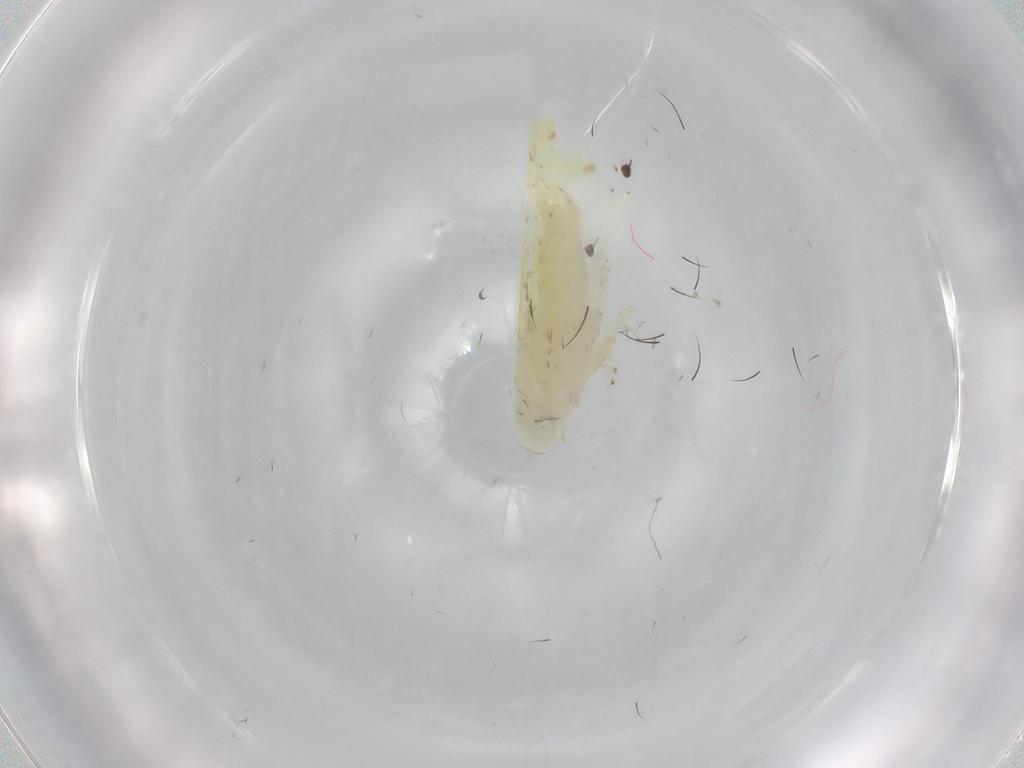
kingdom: Animalia
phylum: Arthropoda
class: Insecta
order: Hemiptera
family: Cicadellidae
